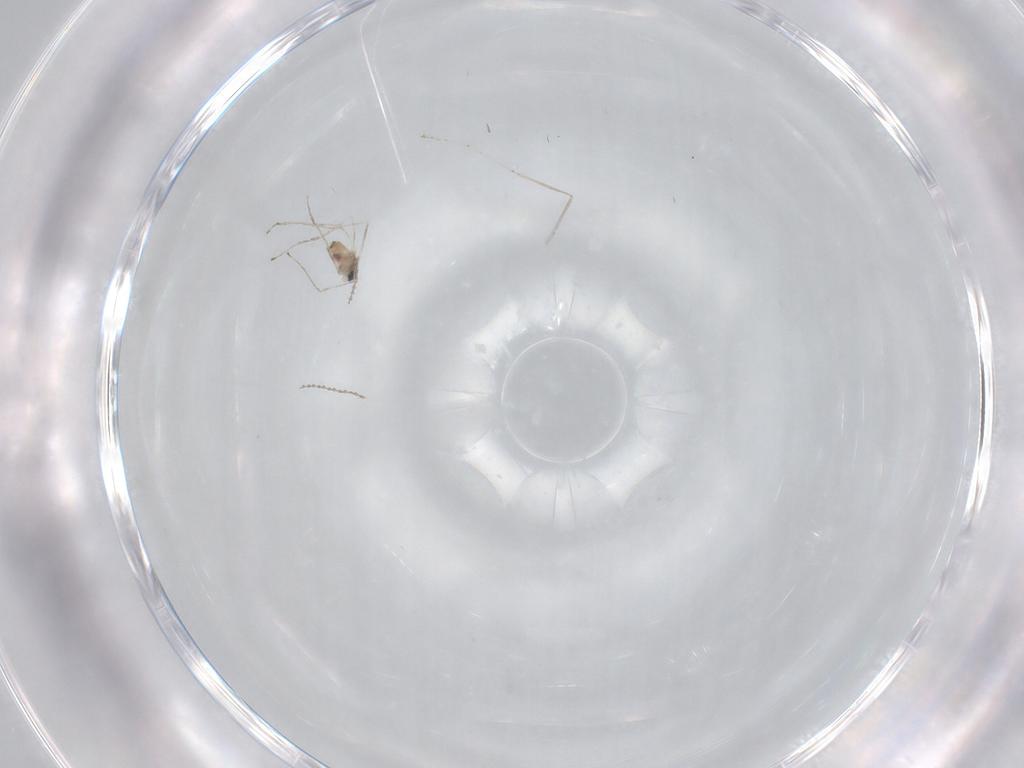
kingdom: Animalia
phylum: Arthropoda
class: Insecta
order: Diptera
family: Cecidomyiidae
